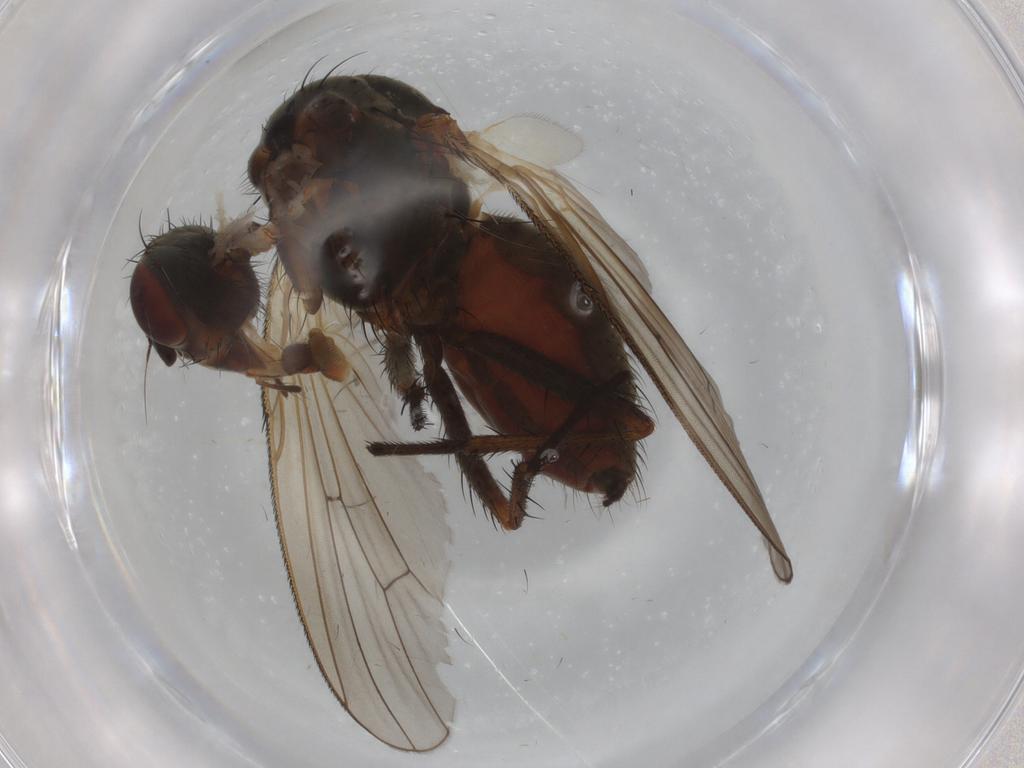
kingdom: Animalia
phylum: Arthropoda
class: Insecta
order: Diptera
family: Anthomyiidae
